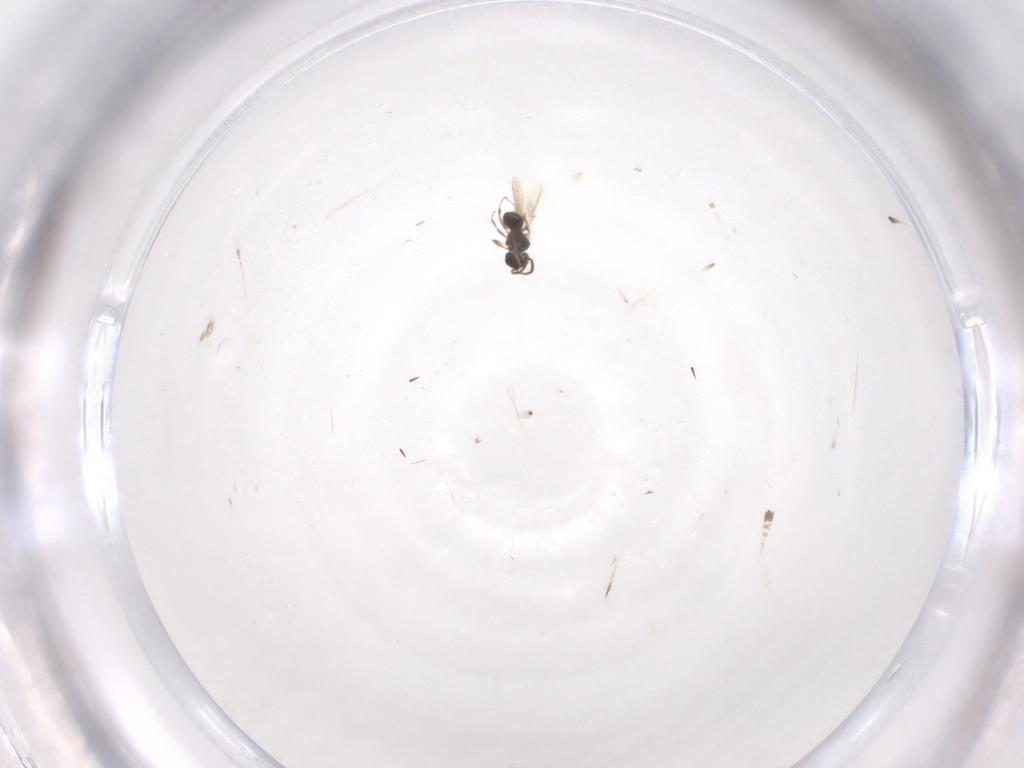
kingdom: Animalia
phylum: Arthropoda
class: Insecta
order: Hymenoptera
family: Scelionidae
